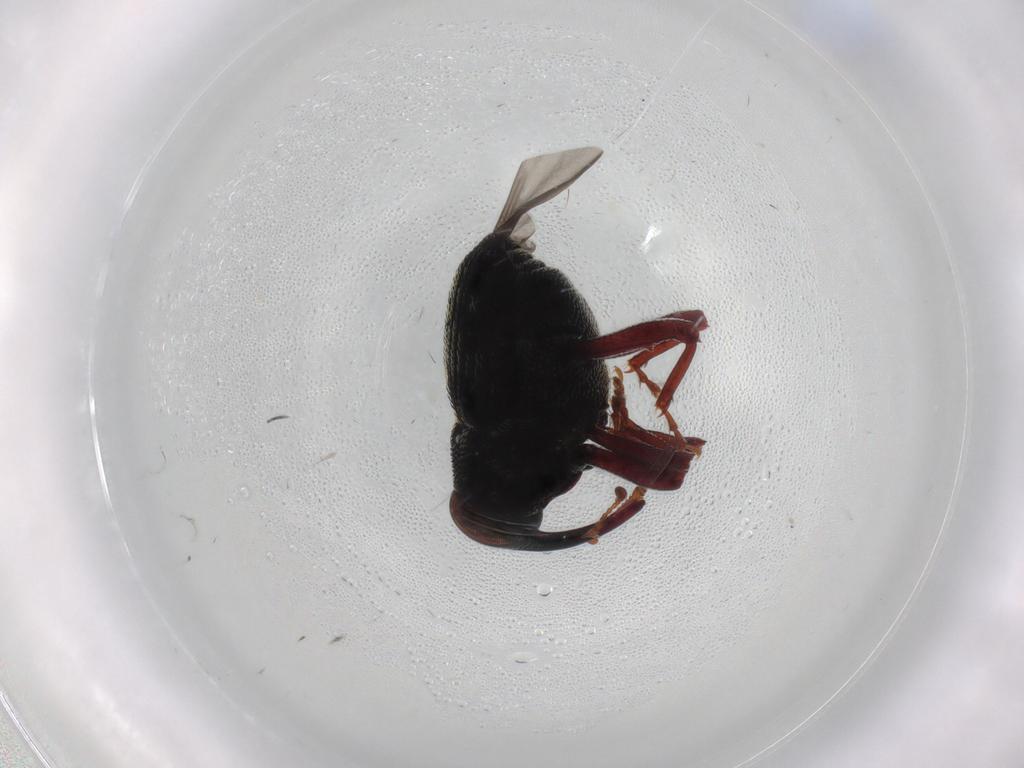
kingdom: Animalia
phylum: Arthropoda
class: Insecta
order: Coleoptera
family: Curculionidae
